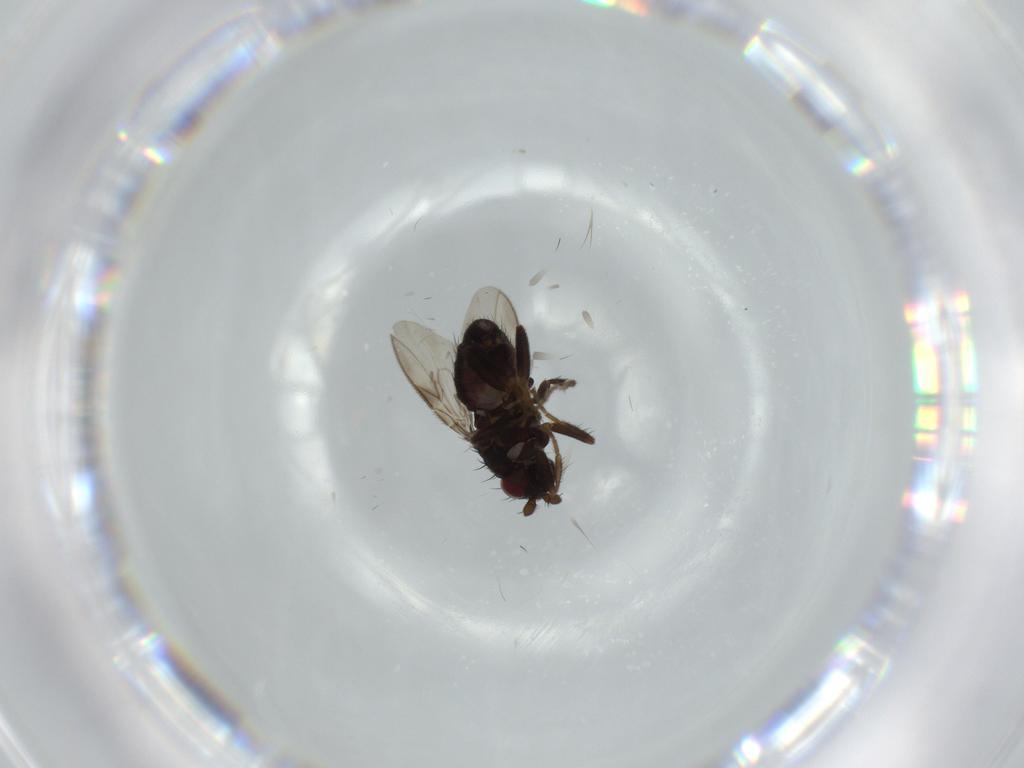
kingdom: Animalia
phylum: Arthropoda
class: Insecta
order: Diptera
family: Sphaeroceridae
